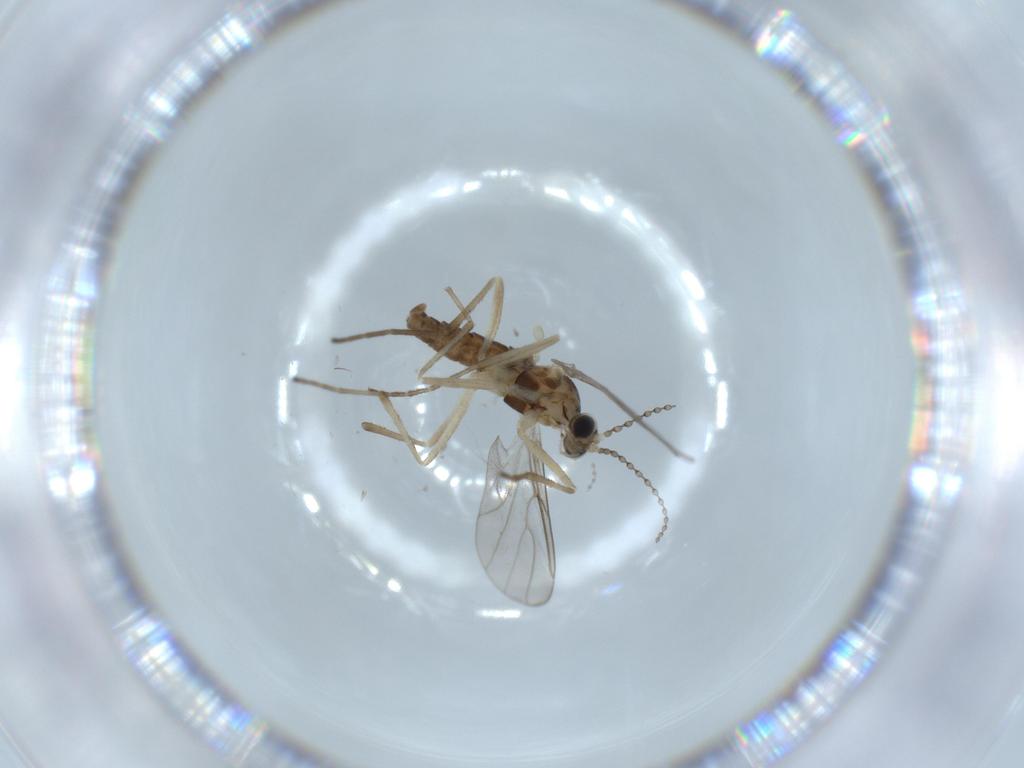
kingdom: Animalia
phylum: Arthropoda
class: Insecta
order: Diptera
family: Cecidomyiidae
